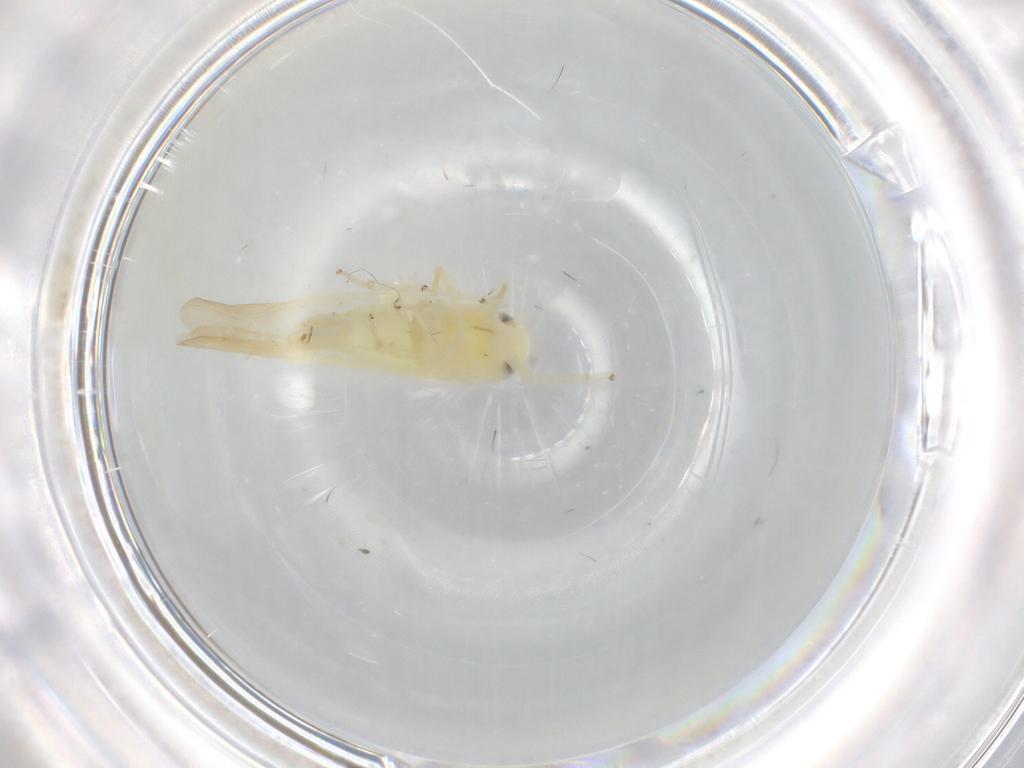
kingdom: Animalia
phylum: Arthropoda
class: Insecta
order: Hemiptera
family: Cicadellidae
